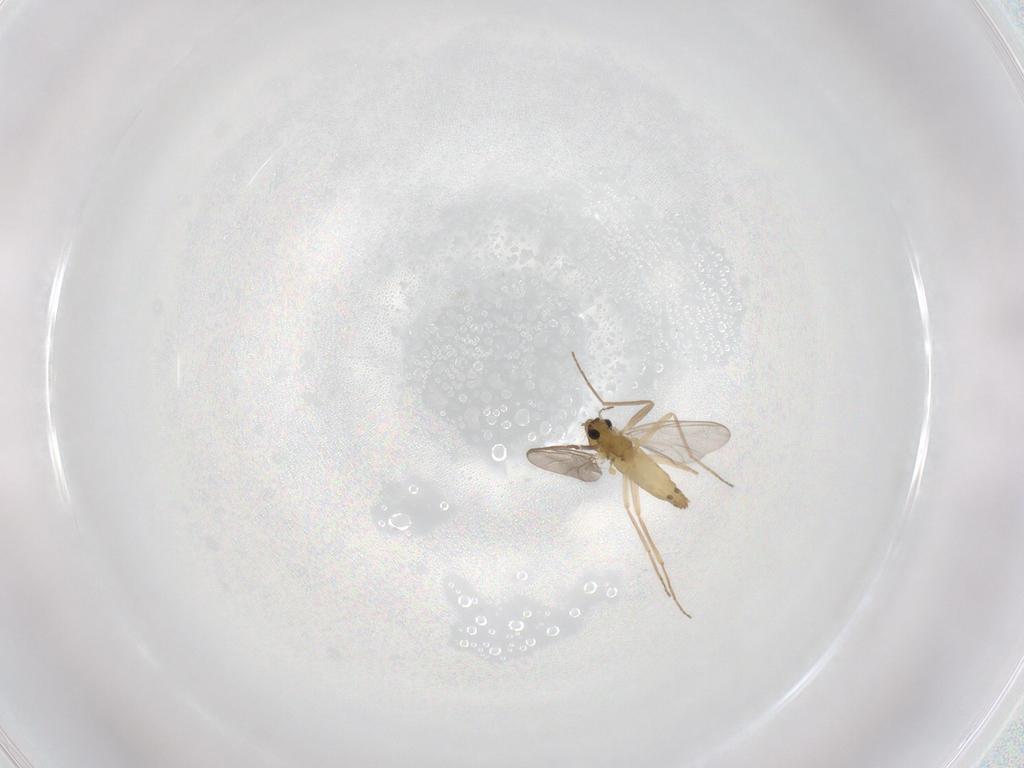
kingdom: Animalia
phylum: Arthropoda
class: Insecta
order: Diptera
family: Chironomidae
